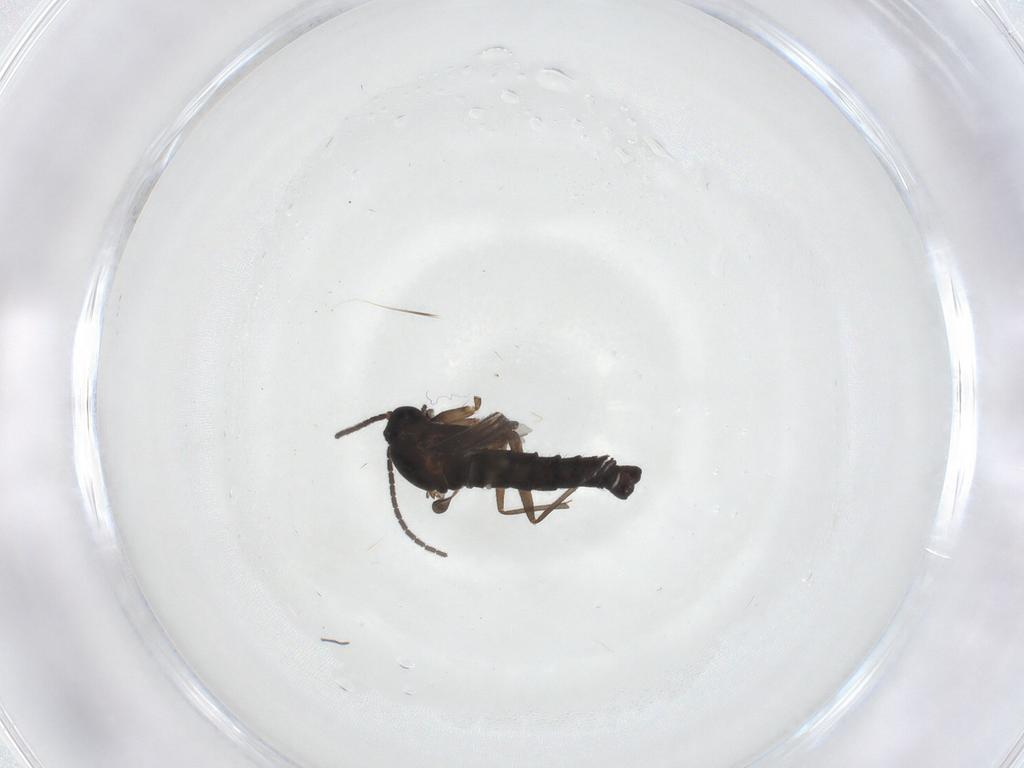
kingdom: Animalia
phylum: Arthropoda
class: Insecta
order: Diptera
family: Sciaridae
